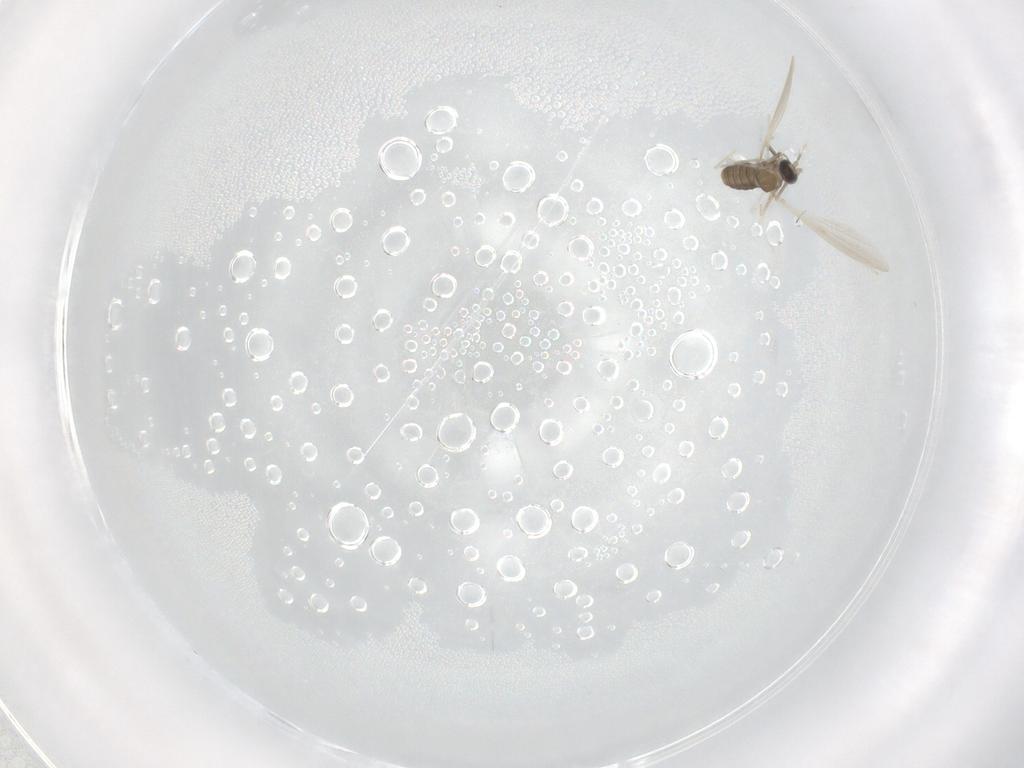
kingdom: Animalia
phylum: Arthropoda
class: Insecta
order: Diptera
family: Cecidomyiidae
